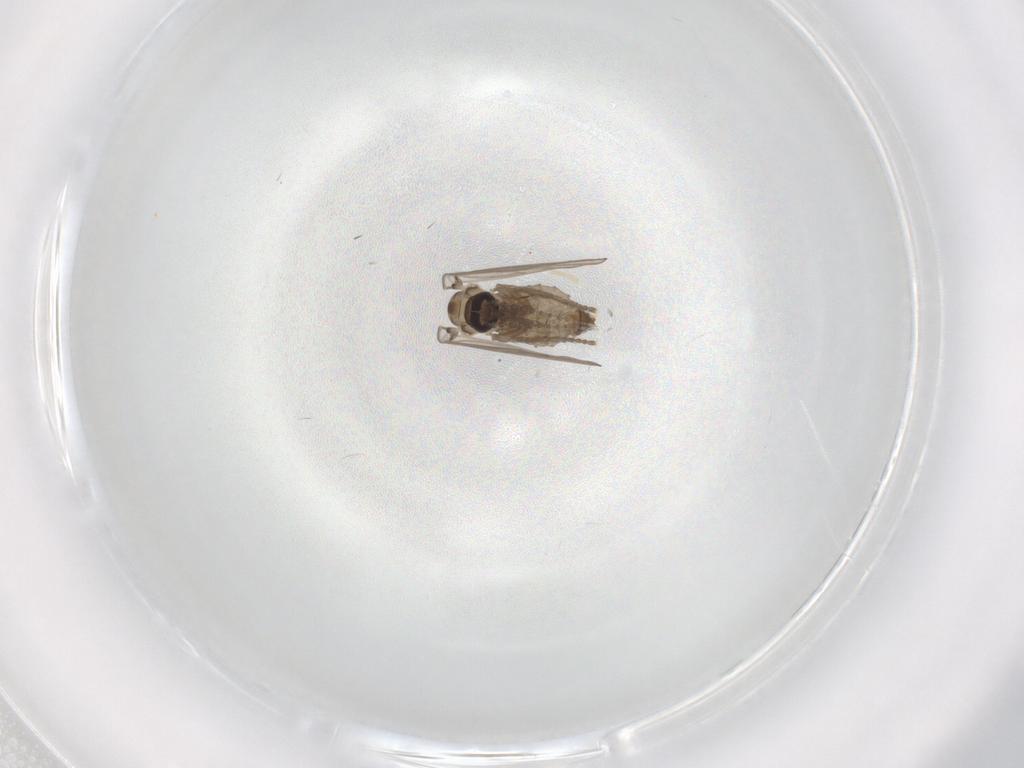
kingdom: Animalia
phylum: Arthropoda
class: Insecta
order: Diptera
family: Psychodidae
